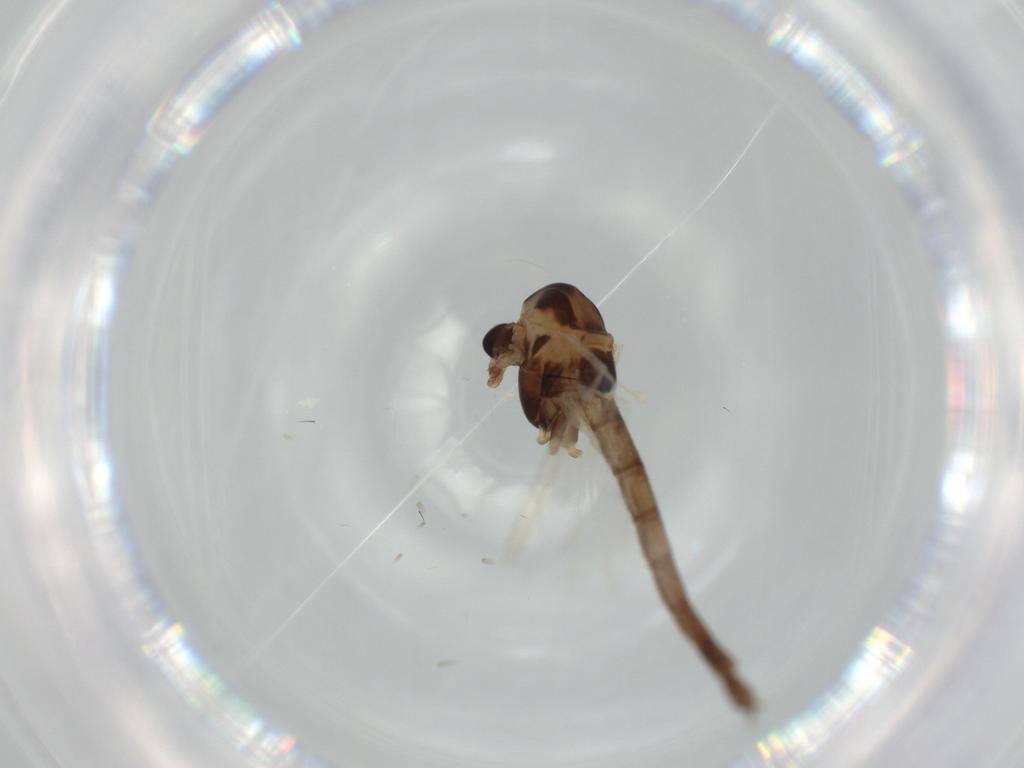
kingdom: Animalia
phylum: Arthropoda
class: Insecta
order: Diptera
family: Chironomidae
